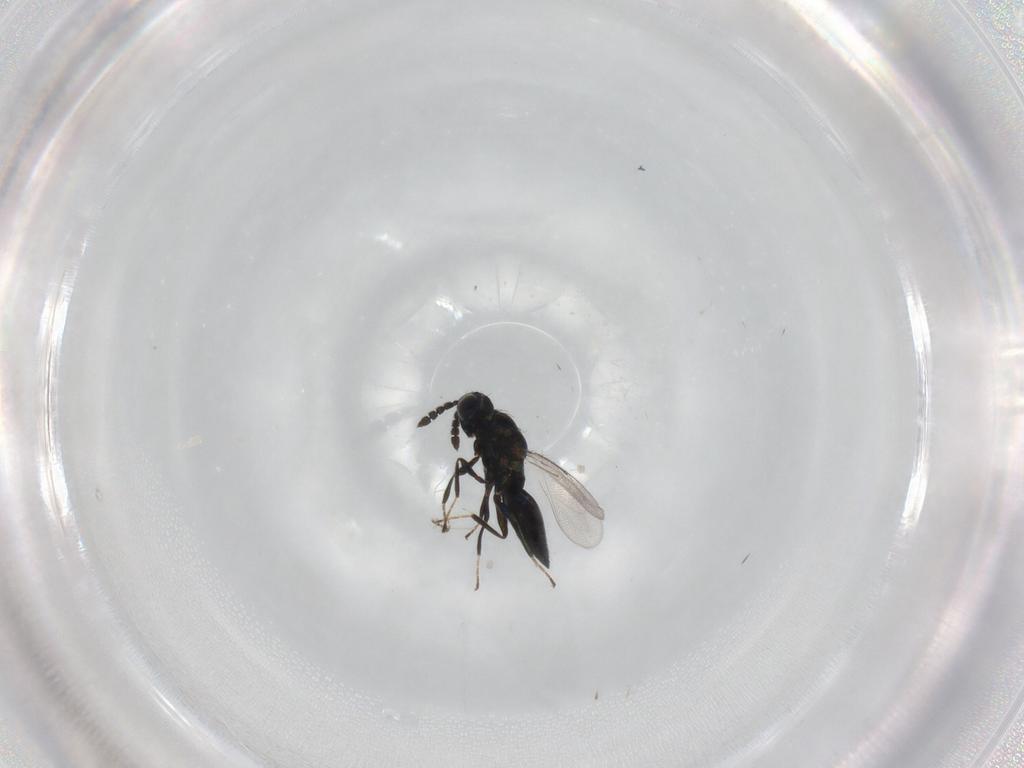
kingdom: Animalia
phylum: Arthropoda
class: Insecta
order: Hymenoptera
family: Eulophidae
